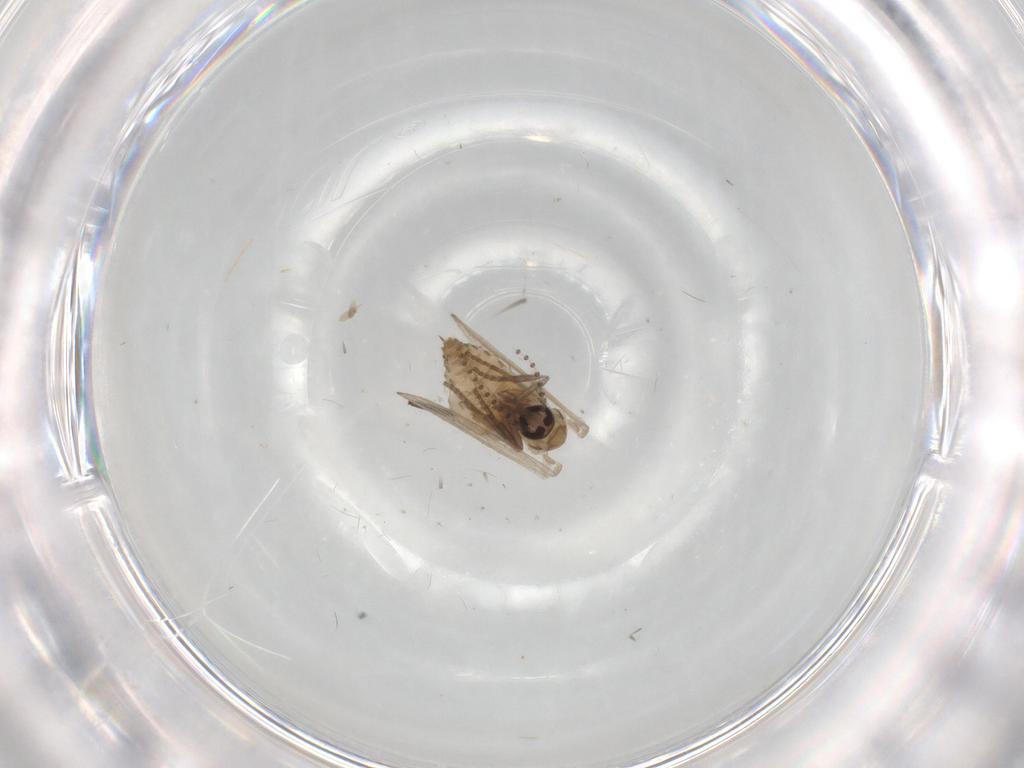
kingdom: Animalia
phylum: Arthropoda
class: Insecta
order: Diptera
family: Psychodidae
